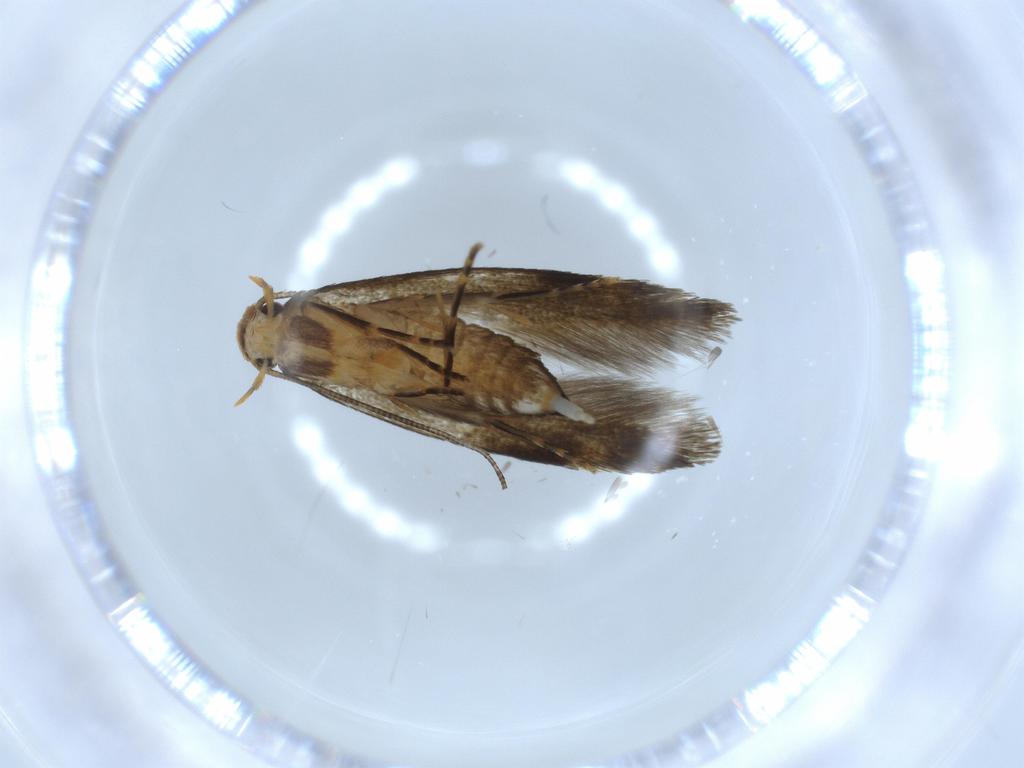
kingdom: Animalia
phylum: Arthropoda
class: Insecta
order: Lepidoptera
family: Tineidae
